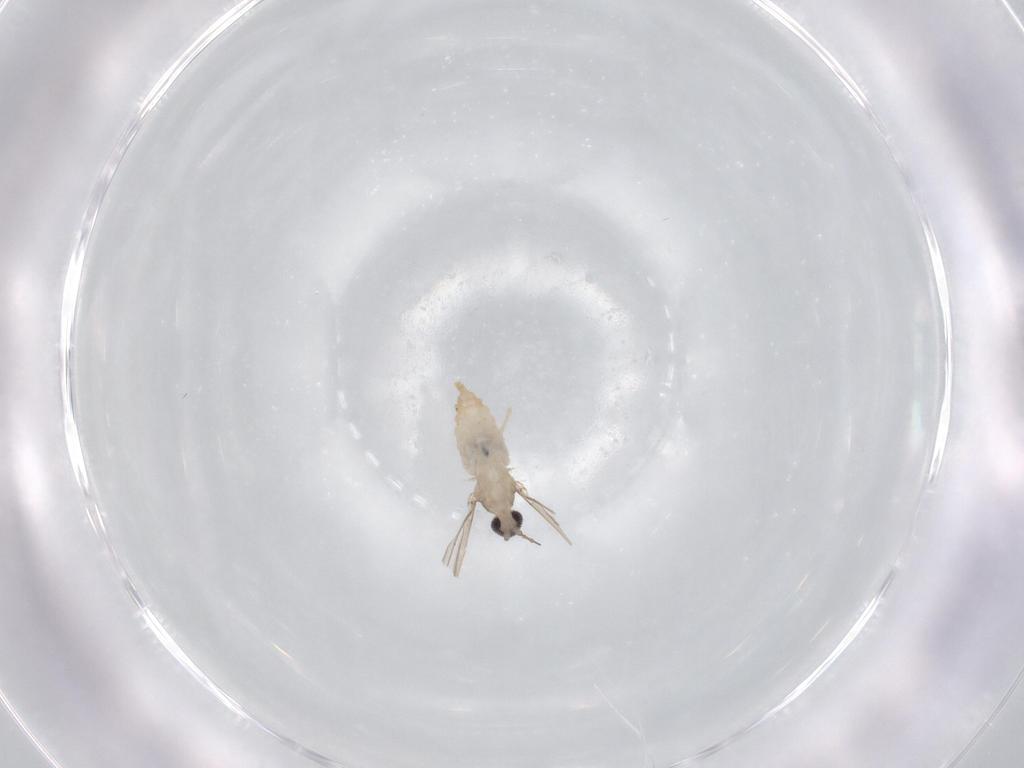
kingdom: Animalia
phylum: Arthropoda
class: Insecta
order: Diptera
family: Cecidomyiidae
